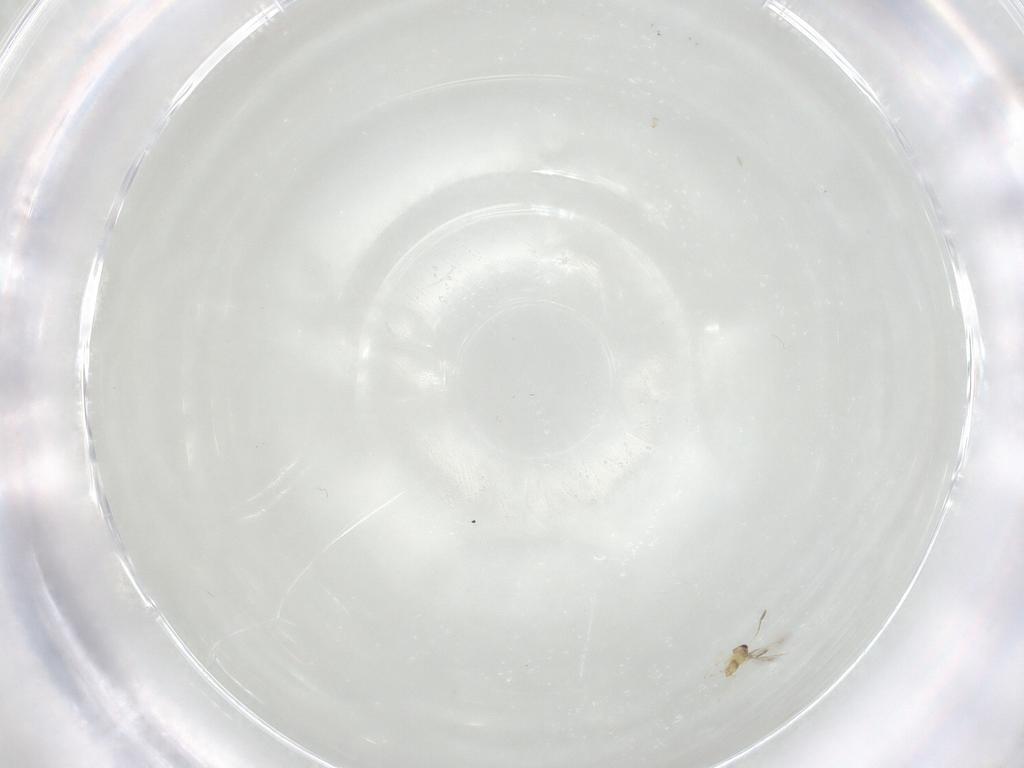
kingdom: Animalia
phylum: Arthropoda
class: Insecta
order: Hymenoptera
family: Mymaridae
